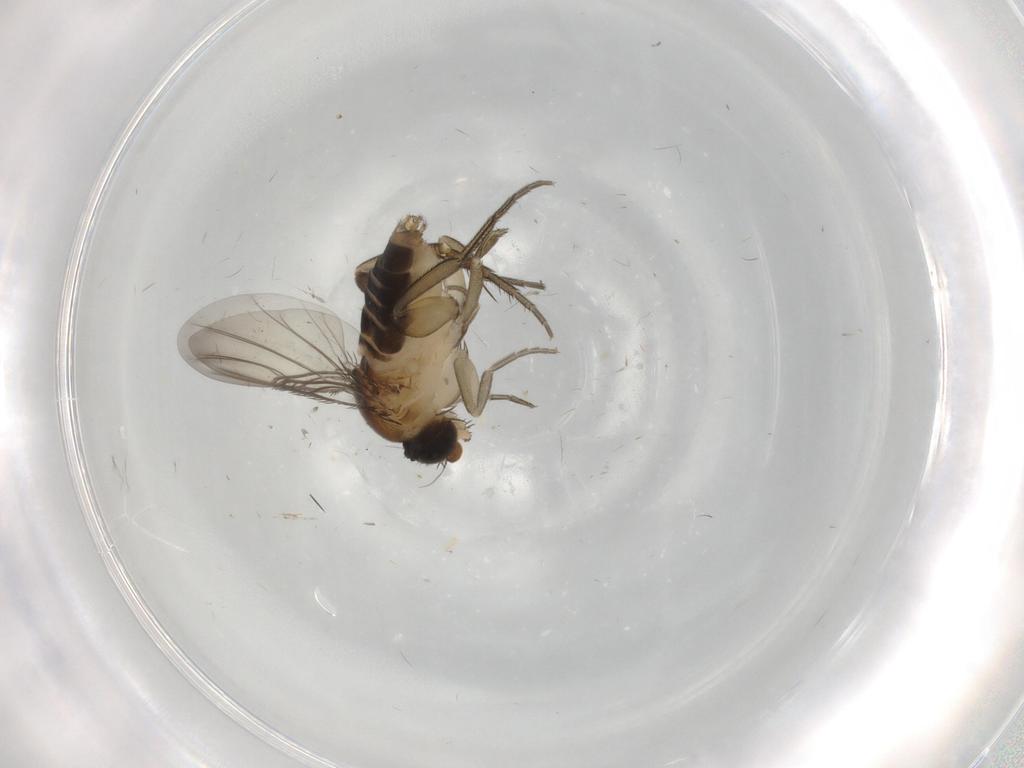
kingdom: Animalia
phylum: Arthropoda
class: Insecta
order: Diptera
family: Phoridae
